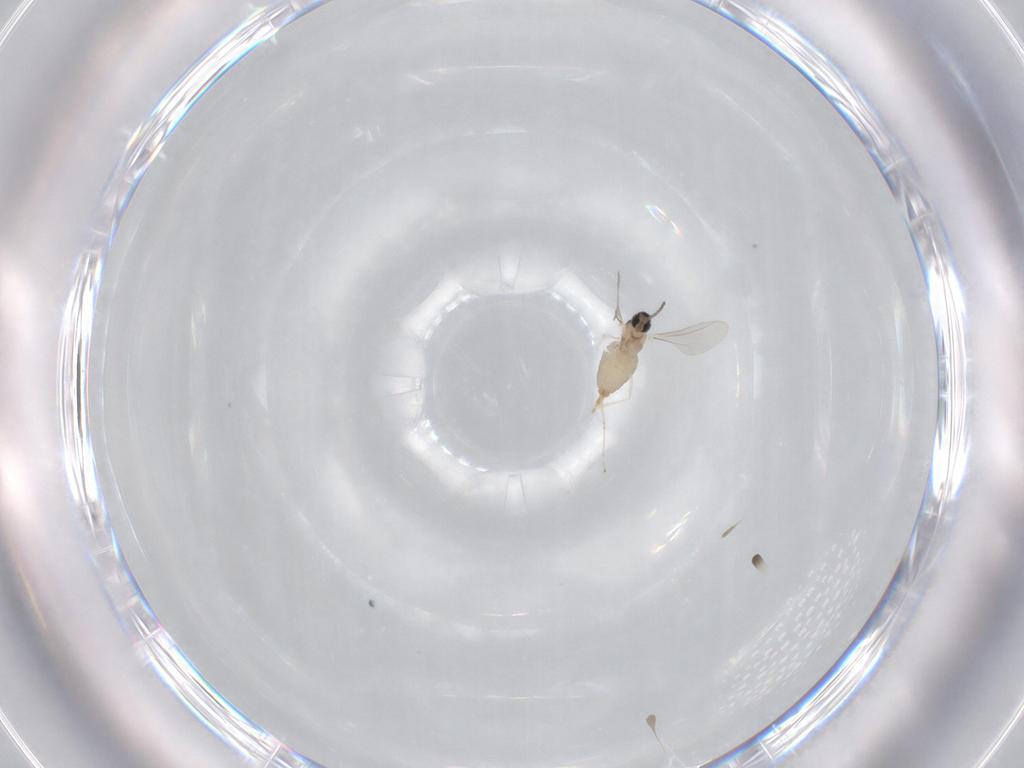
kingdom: Animalia
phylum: Arthropoda
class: Insecta
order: Diptera
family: Cecidomyiidae
